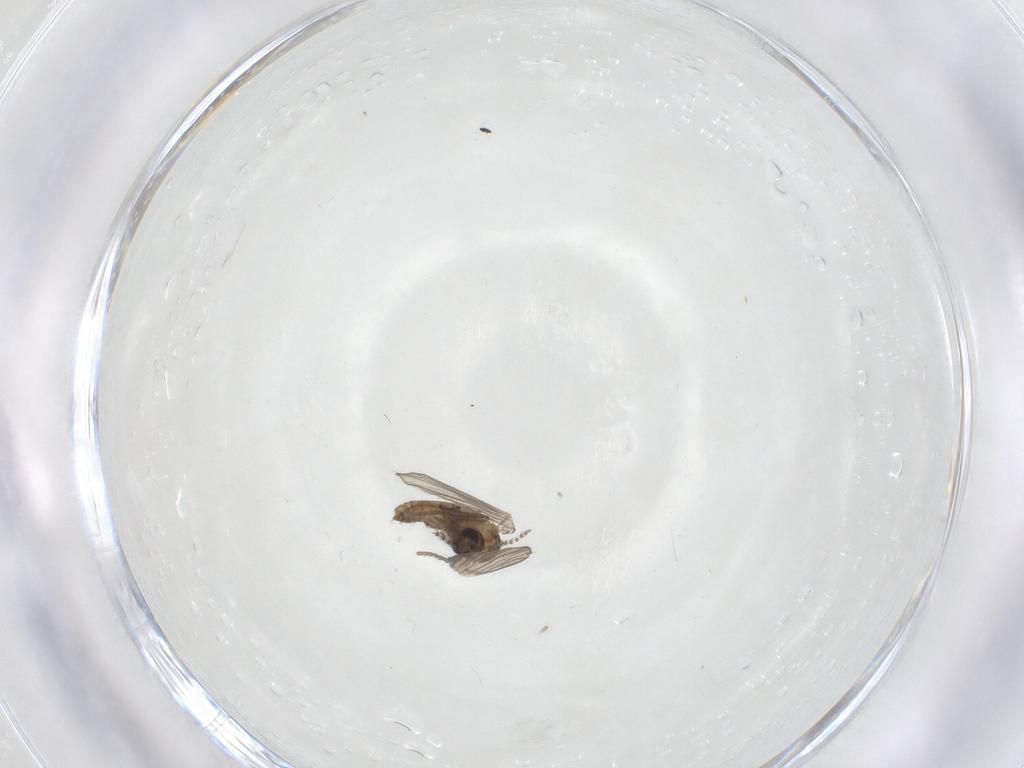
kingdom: Animalia
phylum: Arthropoda
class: Insecta
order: Diptera
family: Psychodidae
